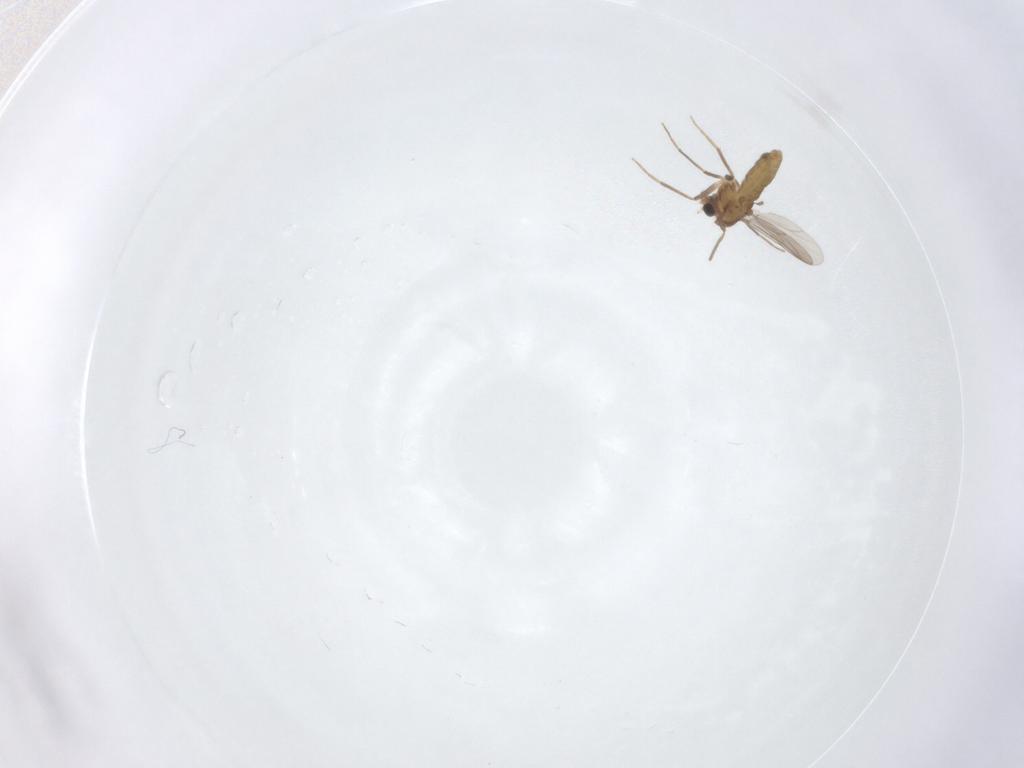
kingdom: Animalia
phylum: Arthropoda
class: Insecta
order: Diptera
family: Chironomidae
